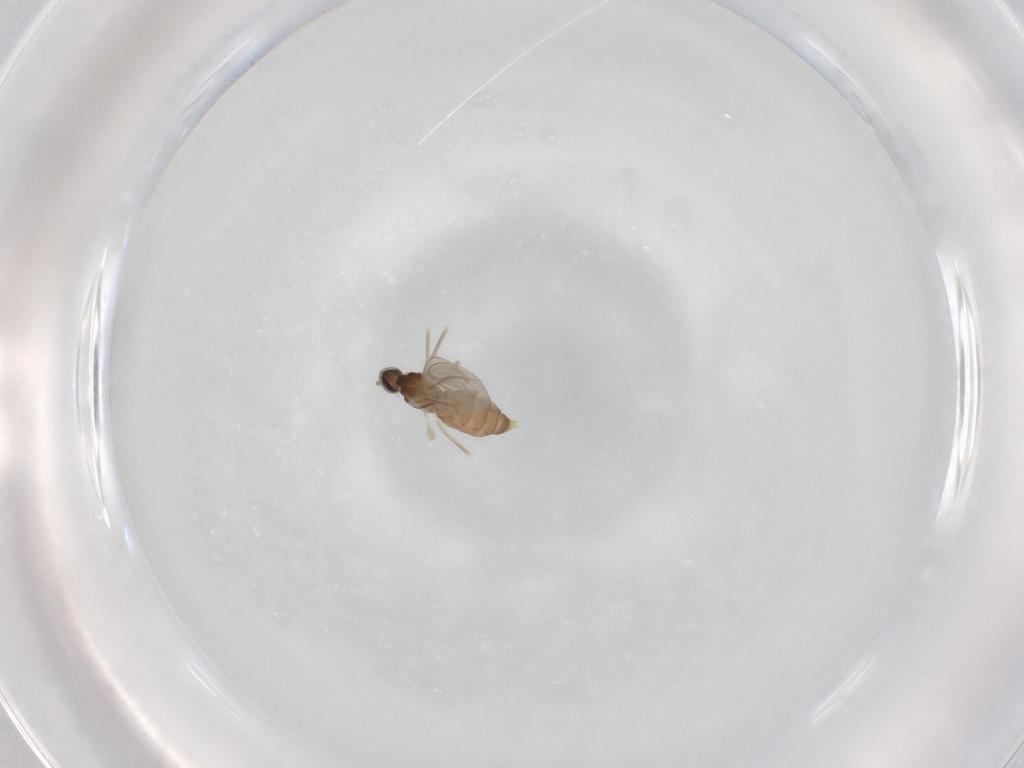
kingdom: Animalia
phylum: Arthropoda
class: Insecta
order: Diptera
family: Cecidomyiidae
